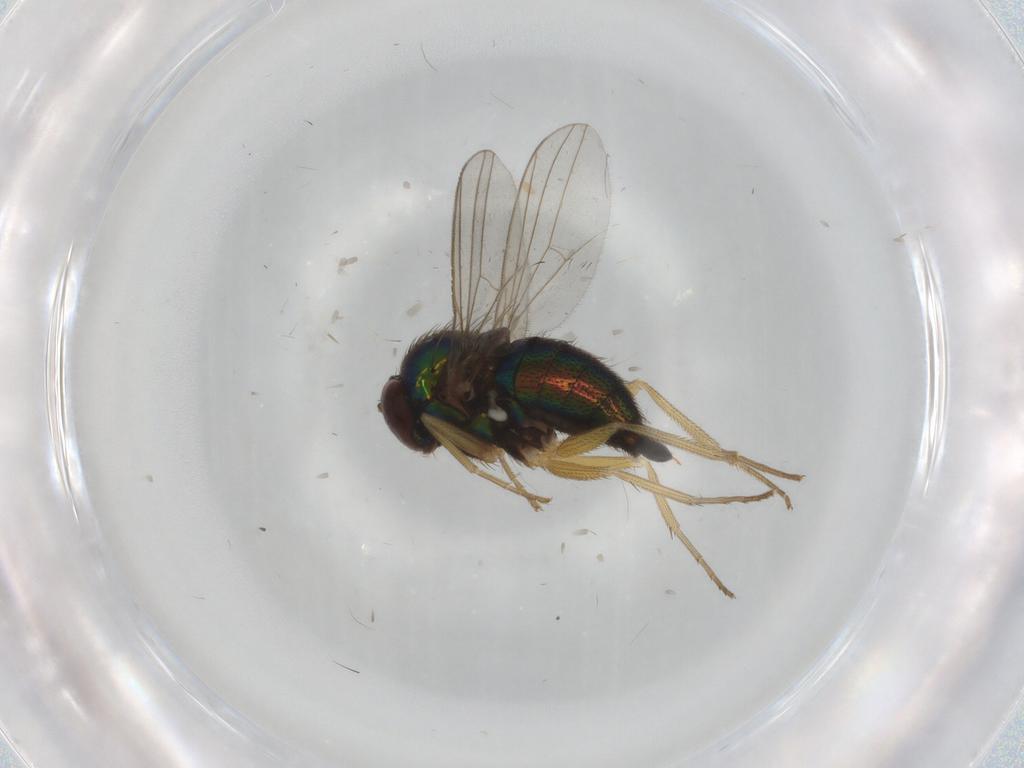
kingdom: Animalia
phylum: Arthropoda
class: Insecta
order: Diptera
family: Dolichopodidae
